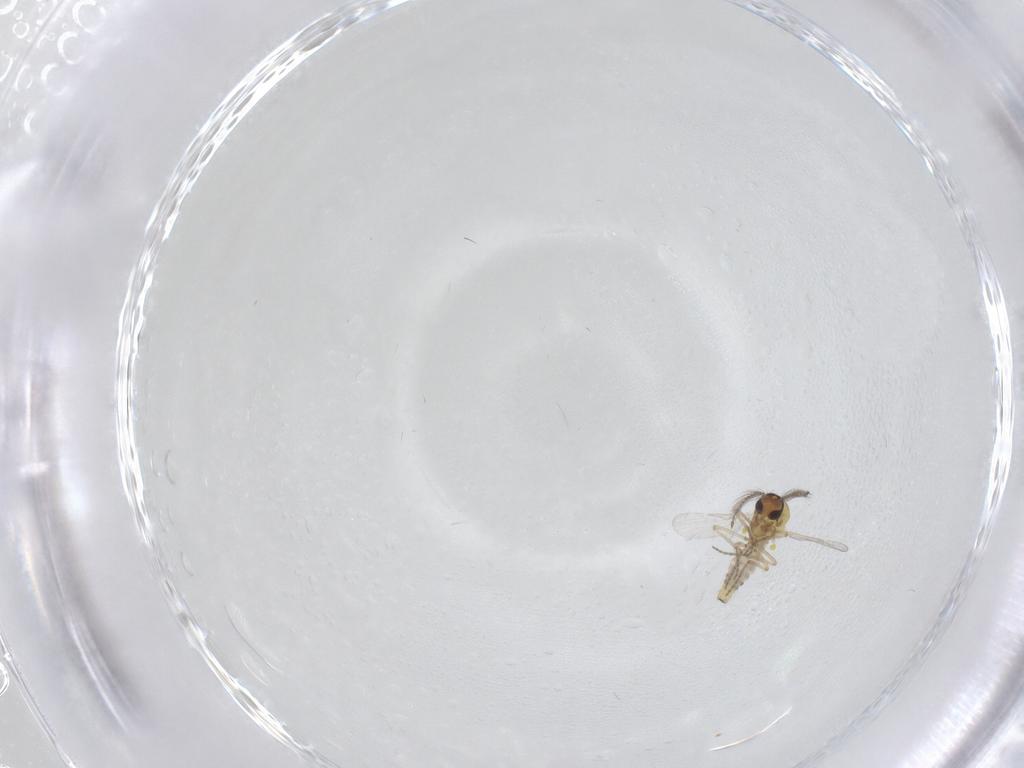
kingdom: Animalia
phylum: Arthropoda
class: Insecta
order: Diptera
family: Ceratopogonidae
